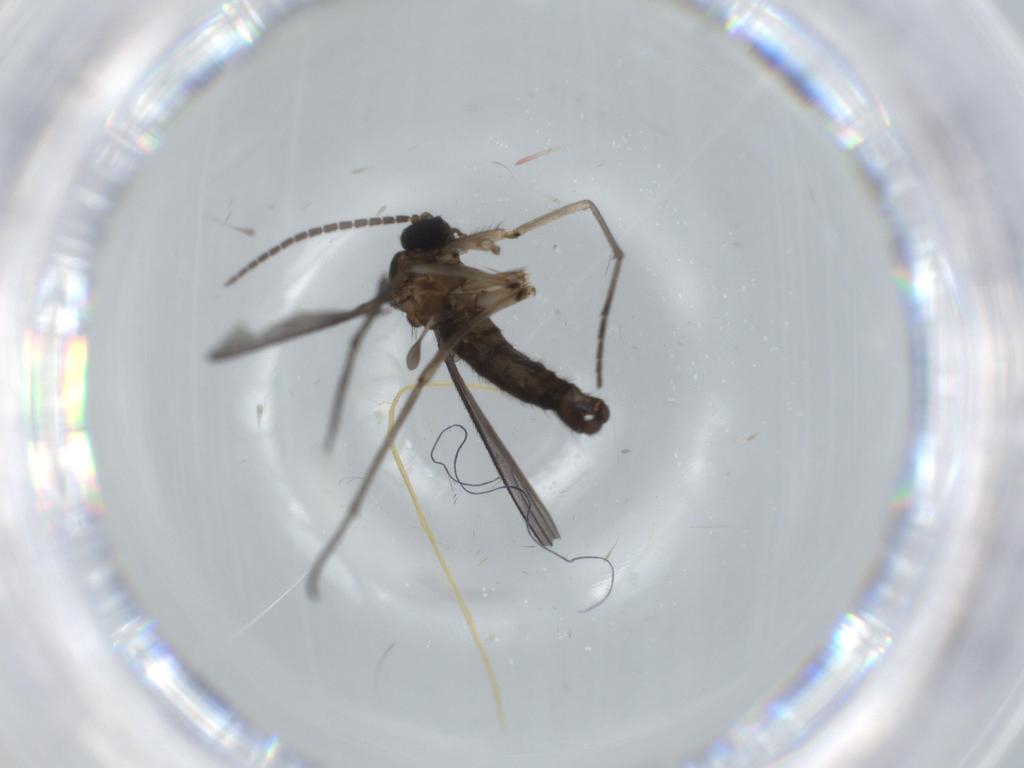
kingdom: Animalia
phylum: Arthropoda
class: Insecta
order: Diptera
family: Sciaridae
